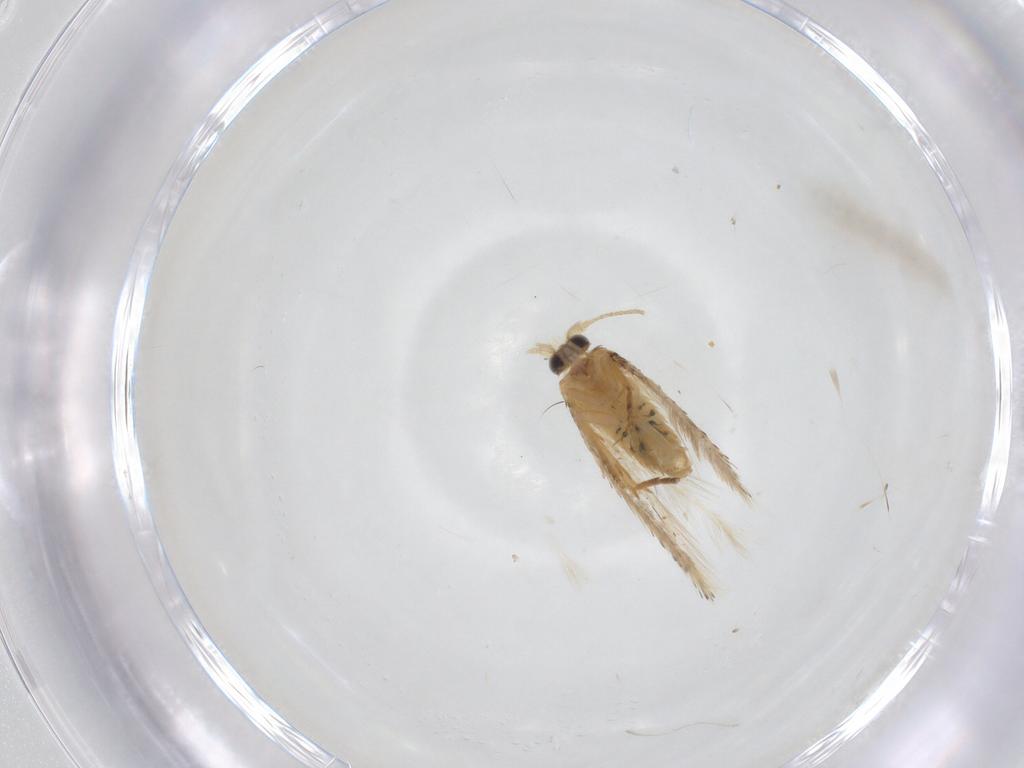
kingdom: Animalia
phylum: Arthropoda
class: Insecta
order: Lepidoptera
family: Nepticulidae
